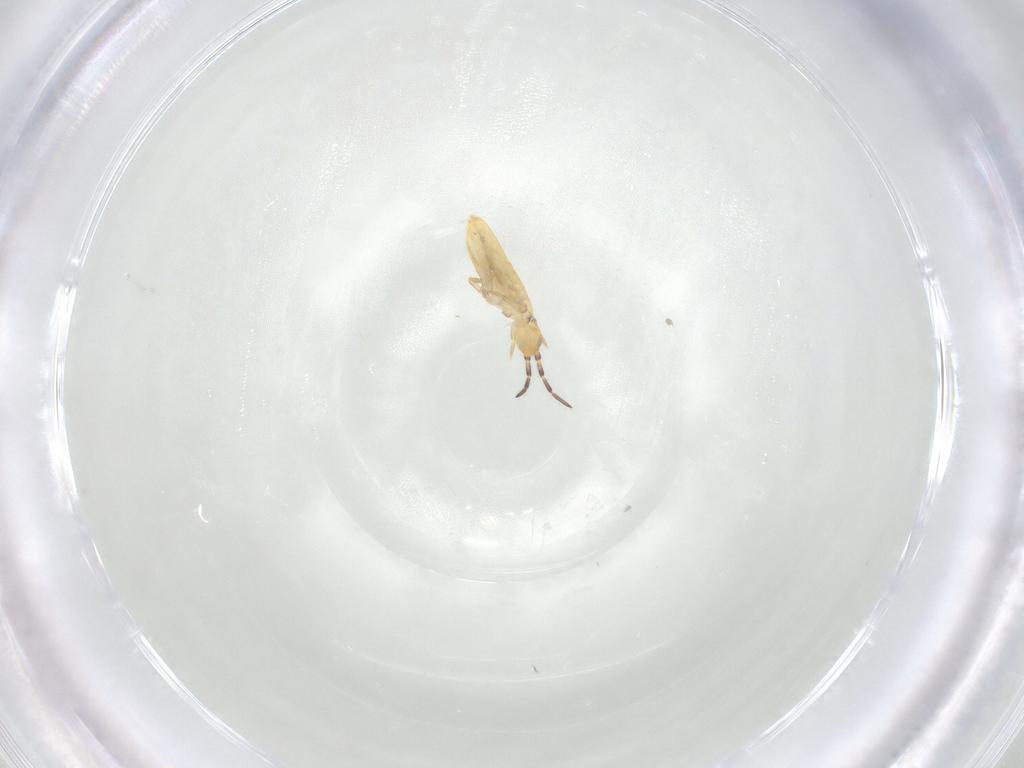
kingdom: Animalia
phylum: Arthropoda
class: Collembola
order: Entomobryomorpha
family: Entomobryidae
